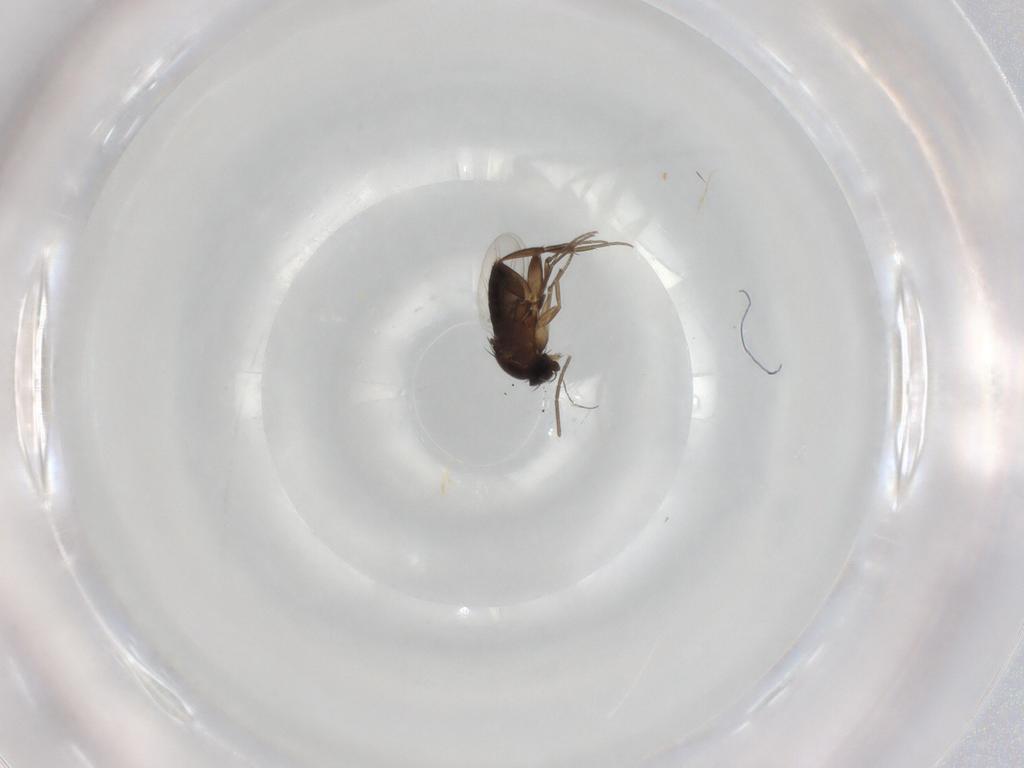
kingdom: Animalia
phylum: Arthropoda
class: Insecta
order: Diptera
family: Phoridae
